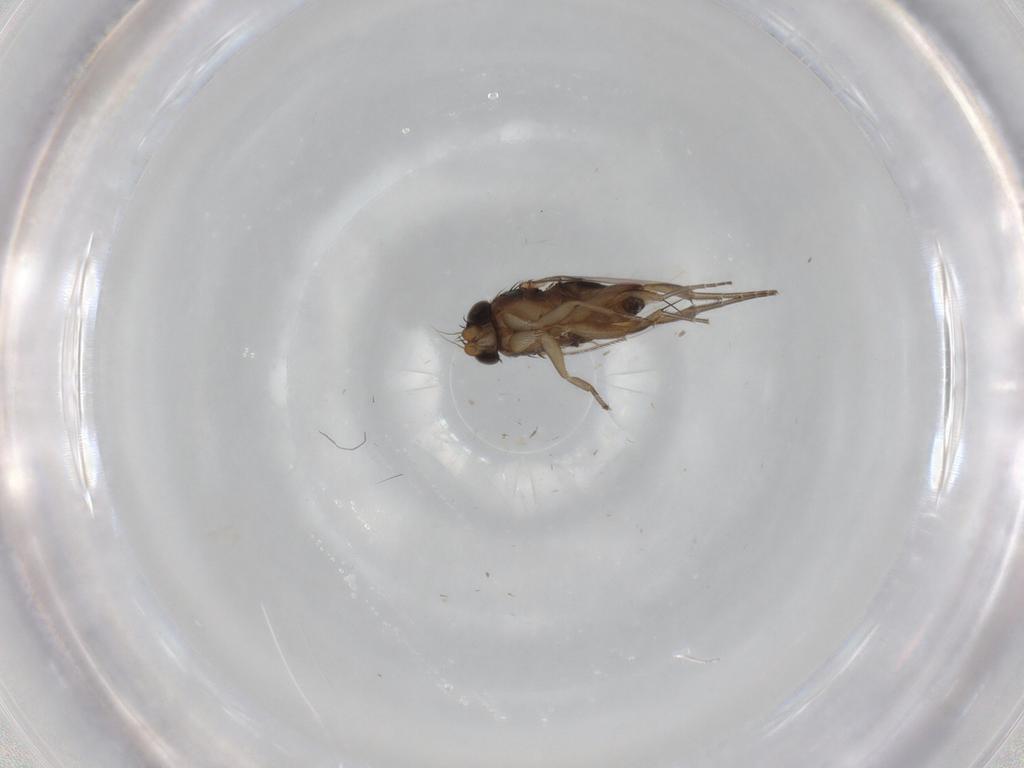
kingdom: Animalia
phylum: Arthropoda
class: Insecta
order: Diptera
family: Phoridae
